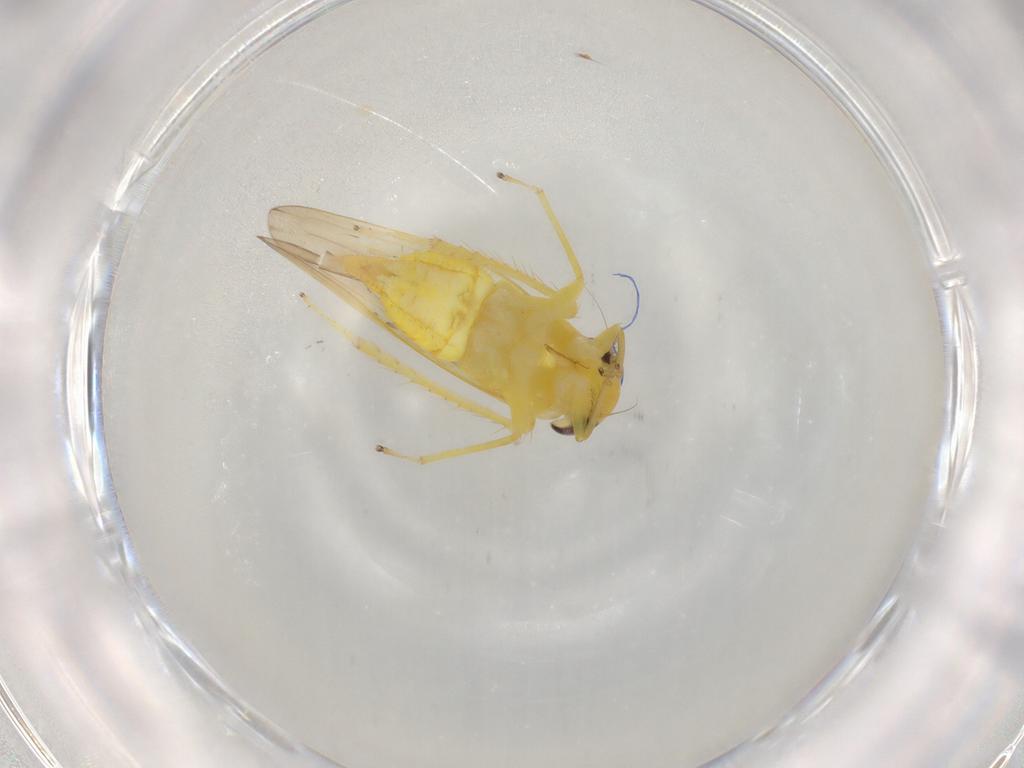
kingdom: Animalia
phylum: Arthropoda
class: Insecta
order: Hemiptera
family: Cicadellidae
